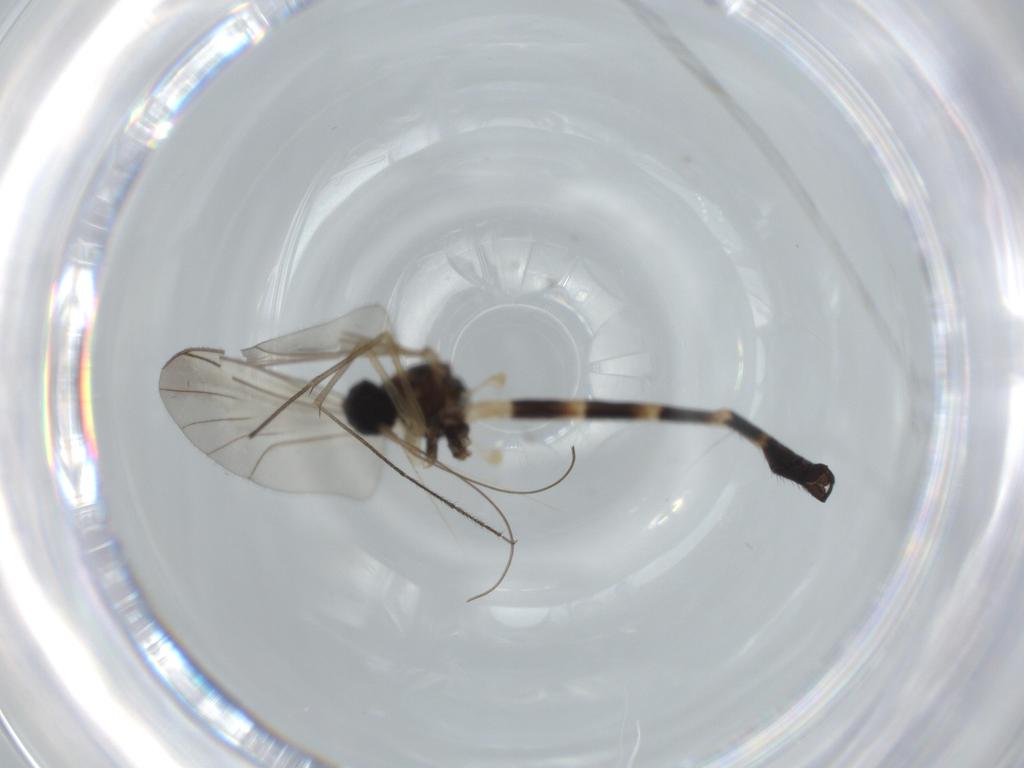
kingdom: Animalia
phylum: Arthropoda
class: Insecta
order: Diptera
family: Keroplatidae
